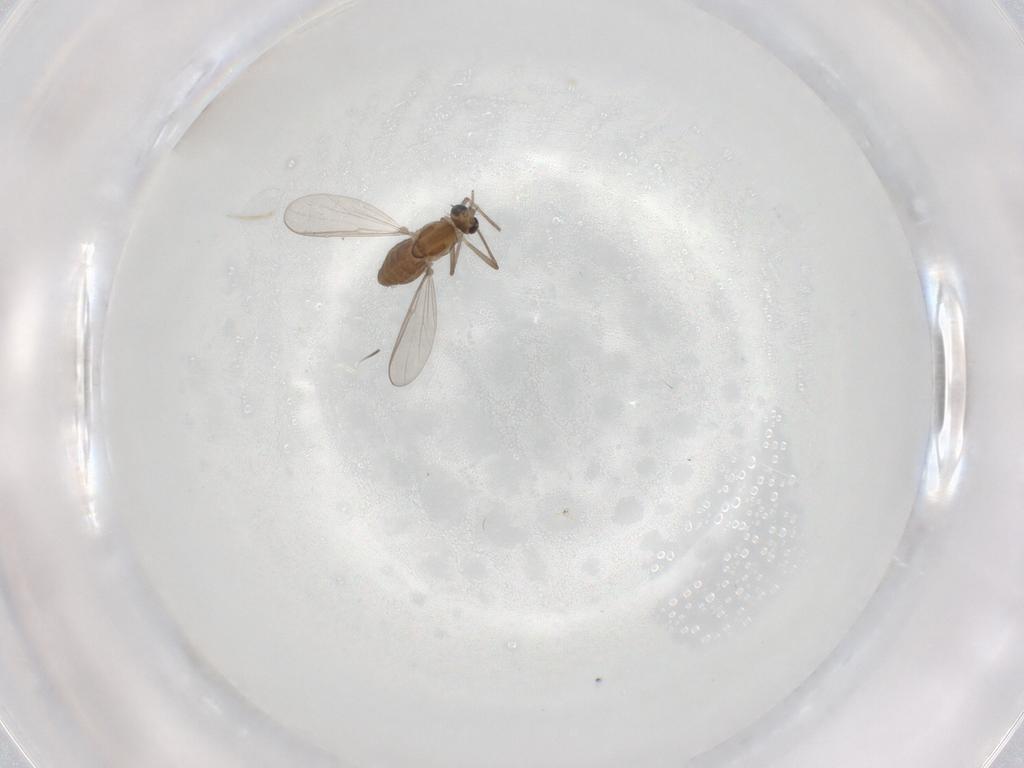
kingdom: Animalia
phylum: Arthropoda
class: Insecta
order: Diptera
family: Chironomidae
